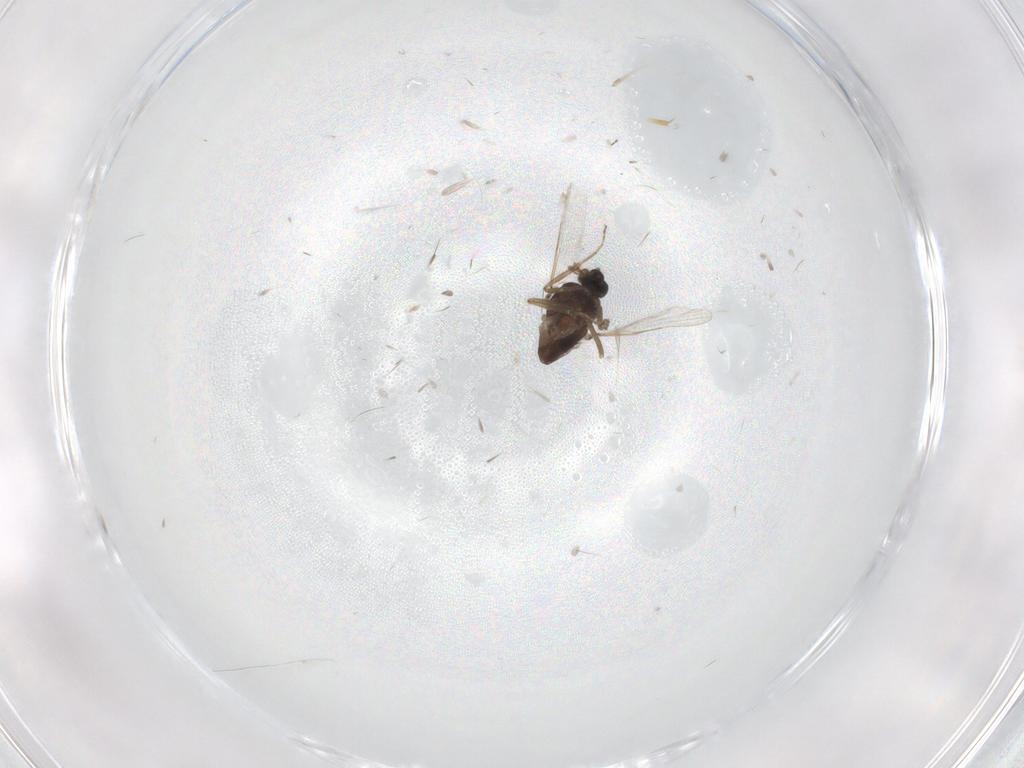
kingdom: Animalia
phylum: Arthropoda
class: Insecta
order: Diptera
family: Ceratopogonidae
